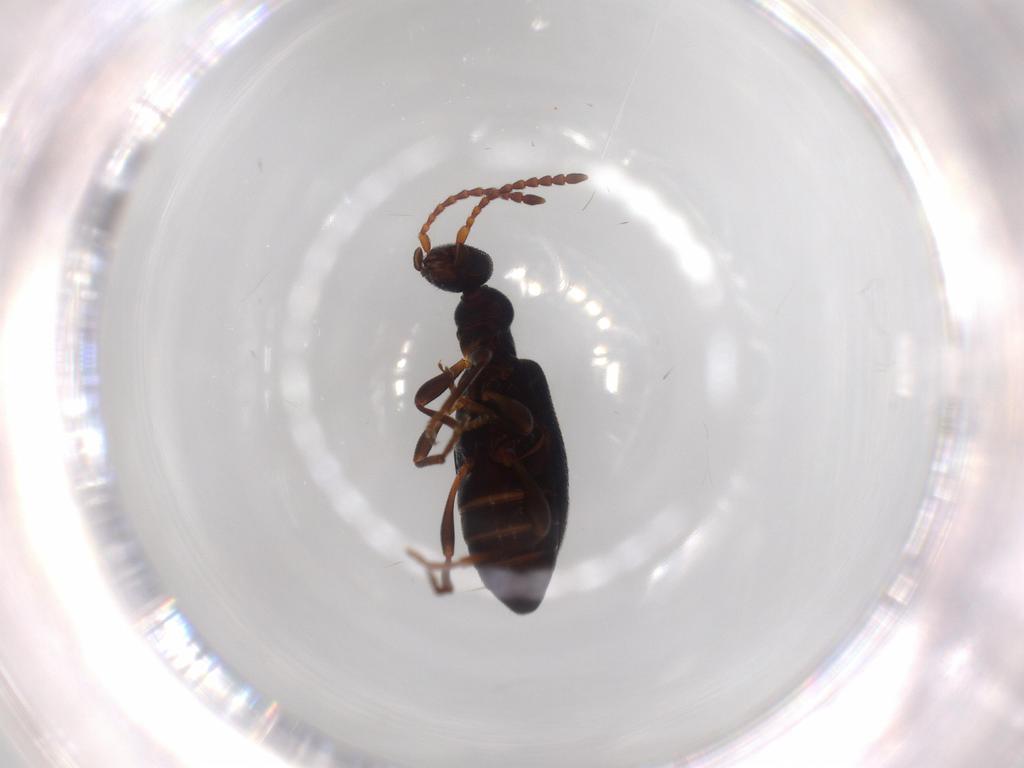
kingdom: Animalia
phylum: Arthropoda
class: Insecta
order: Coleoptera
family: Anthicidae
